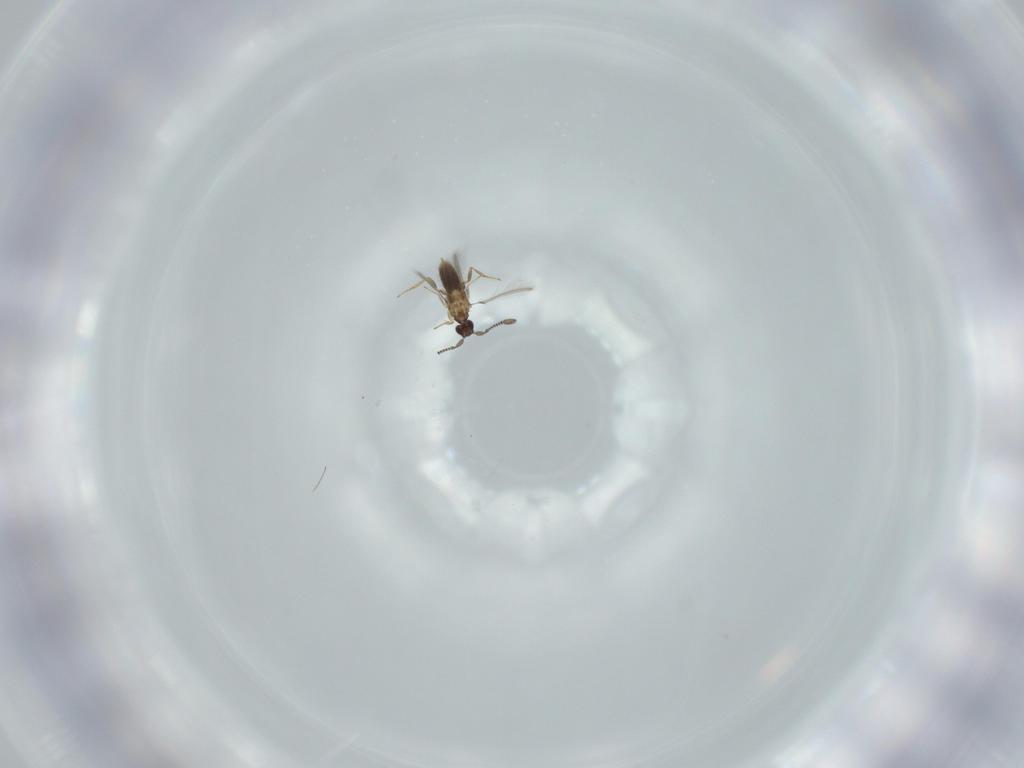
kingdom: Animalia
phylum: Arthropoda
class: Insecta
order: Hymenoptera
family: Mymaridae
